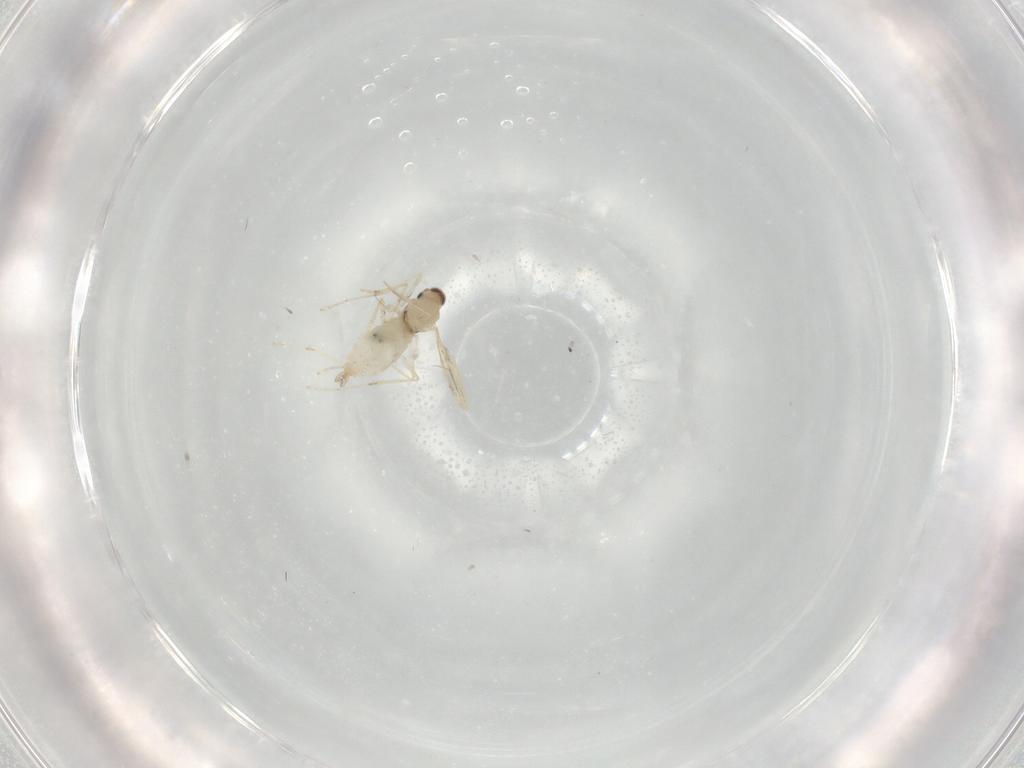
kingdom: Animalia
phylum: Arthropoda
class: Insecta
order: Diptera
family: Cecidomyiidae
